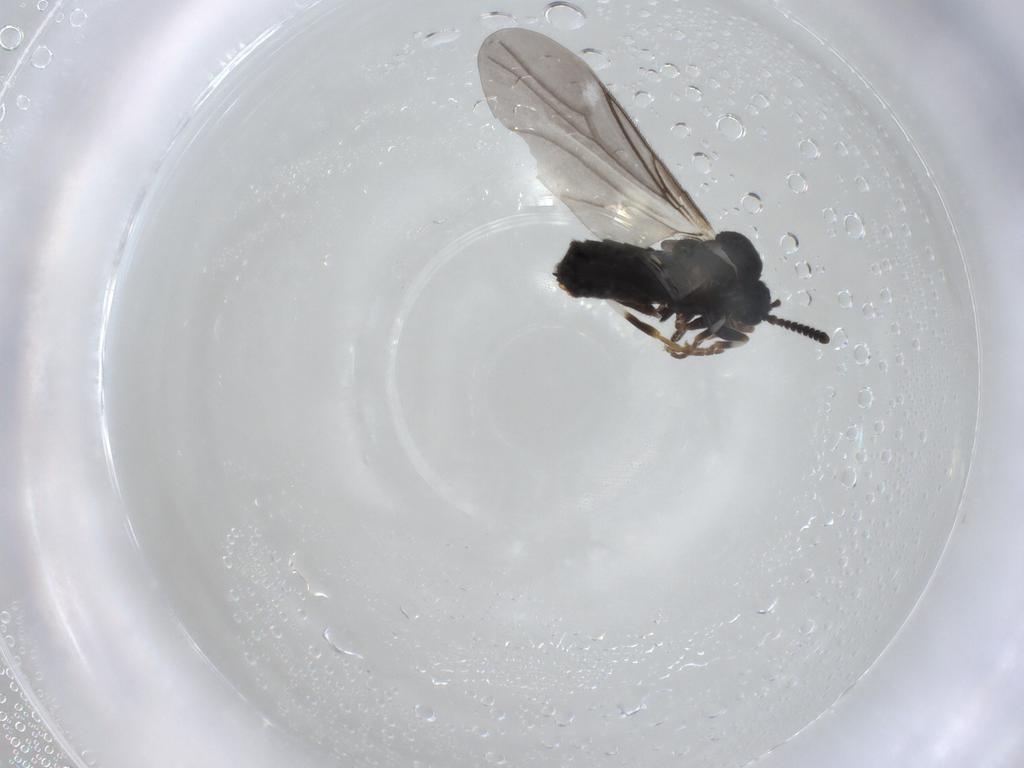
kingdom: Animalia
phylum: Arthropoda
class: Insecta
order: Diptera
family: Scatopsidae
